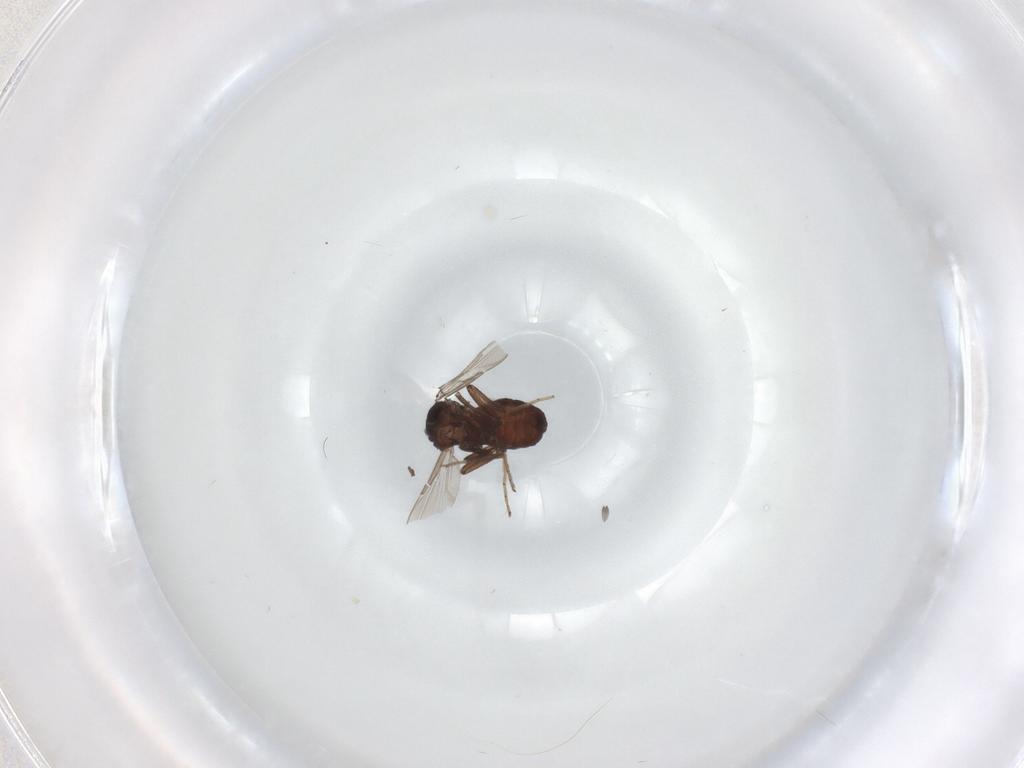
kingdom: Animalia
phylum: Arthropoda
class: Insecta
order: Diptera
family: Ceratopogonidae
